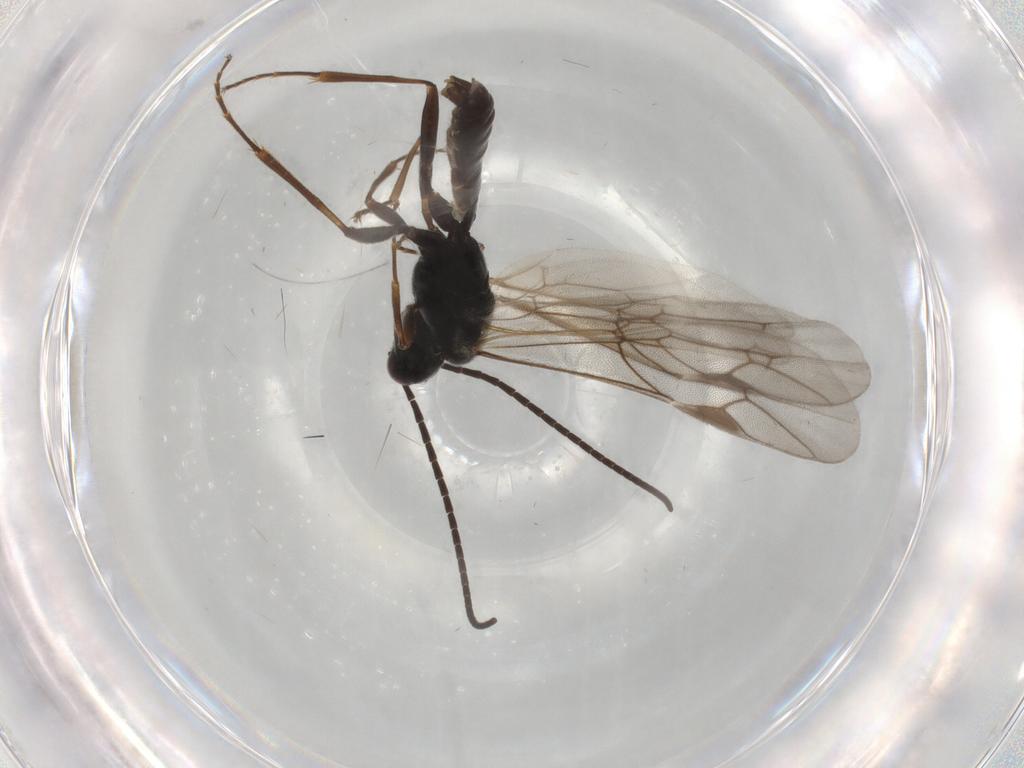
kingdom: Animalia
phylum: Arthropoda
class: Insecta
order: Hymenoptera
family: Ichneumonidae
